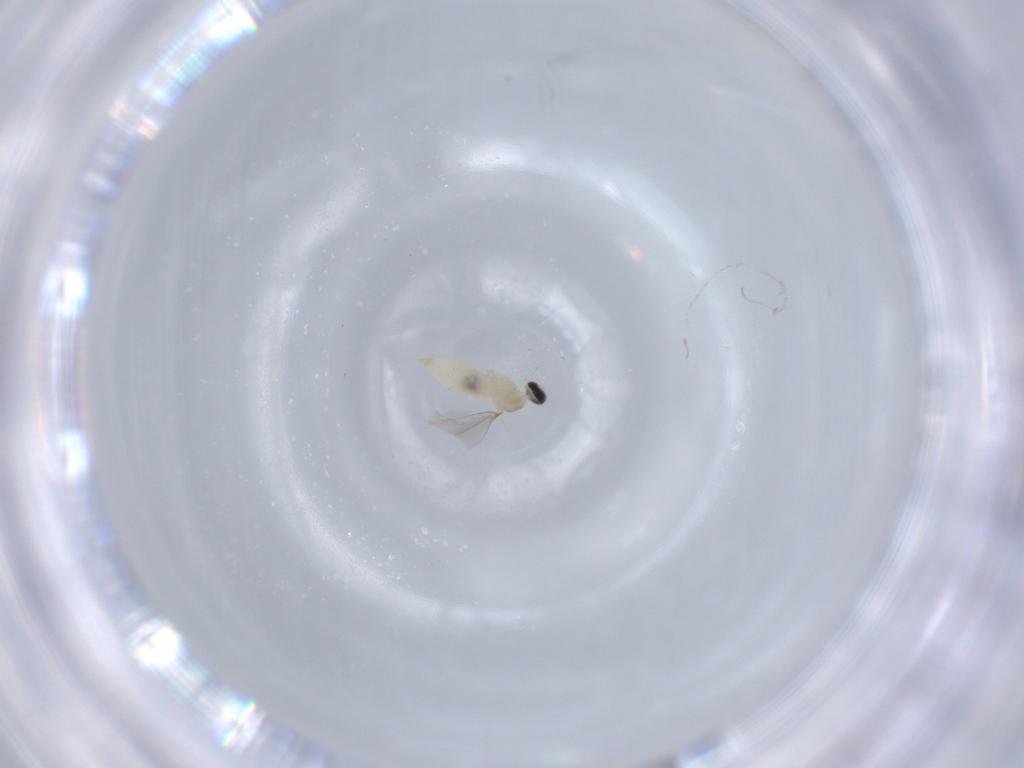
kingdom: Animalia
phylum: Arthropoda
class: Insecta
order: Diptera
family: Cecidomyiidae
